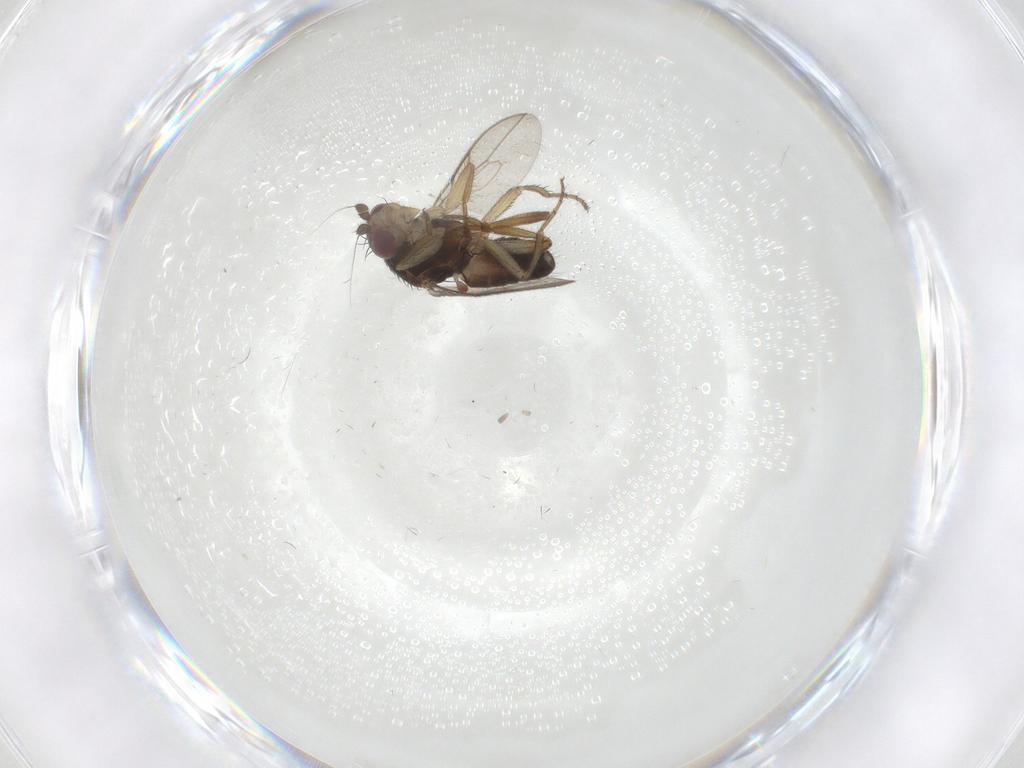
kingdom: Animalia
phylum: Arthropoda
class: Insecta
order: Diptera
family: Sphaeroceridae
